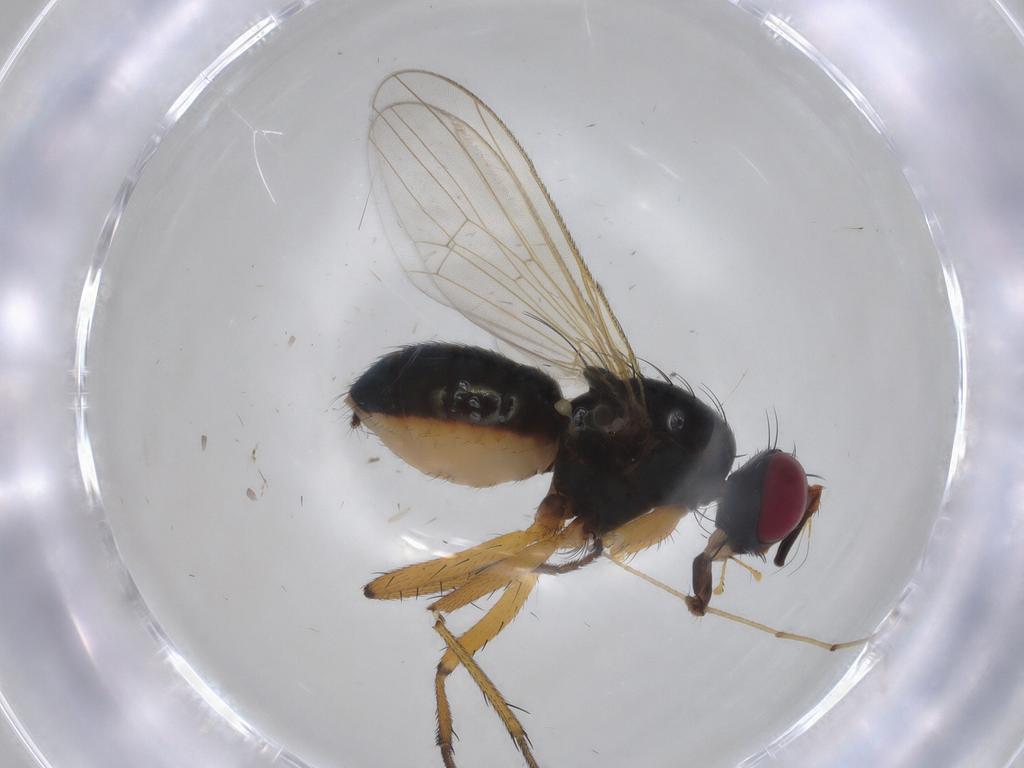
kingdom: Animalia
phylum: Arthropoda
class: Insecta
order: Diptera
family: Muscidae
